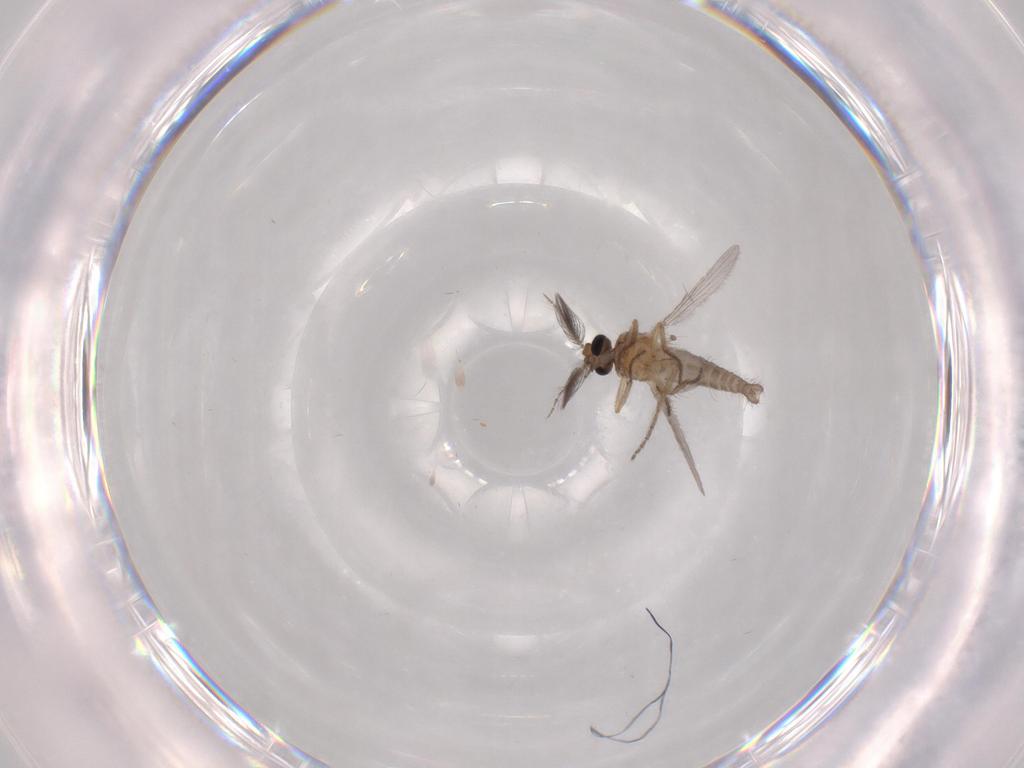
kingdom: Animalia
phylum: Arthropoda
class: Insecta
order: Diptera
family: Ceratopogonidae
